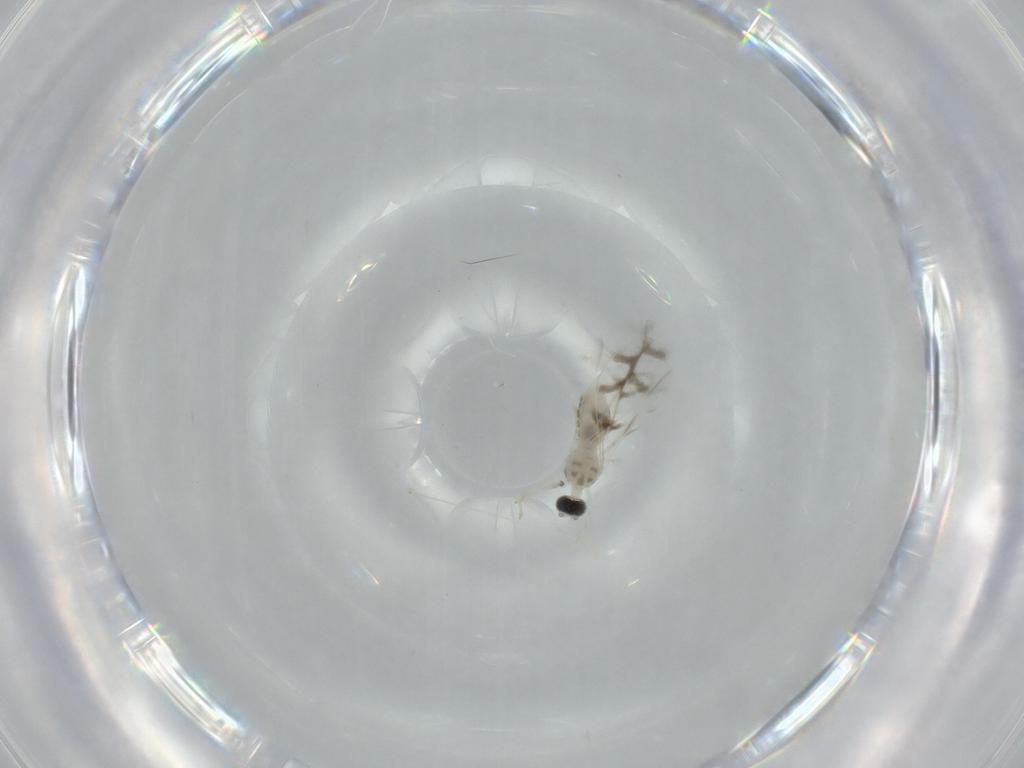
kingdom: Animalia
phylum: Arthropoda
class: Insecta
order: Diptera
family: Cecidomyiidae
